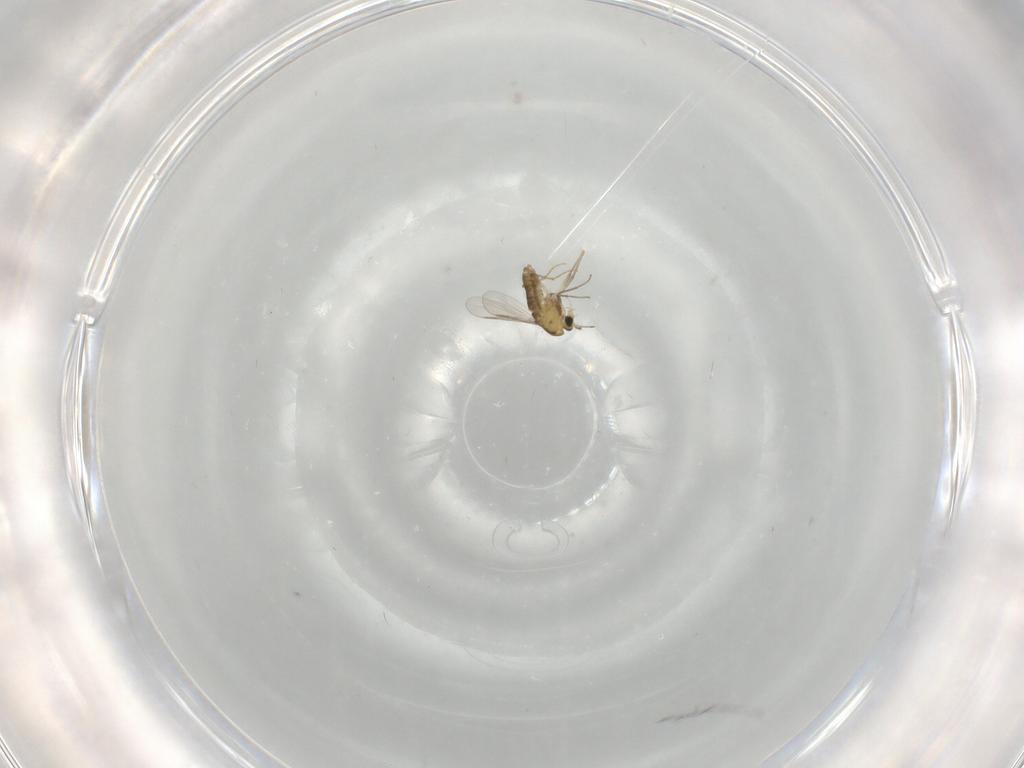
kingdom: Animalia
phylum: Arthropoda
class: Insecta
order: Diptera
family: Chironomidae
